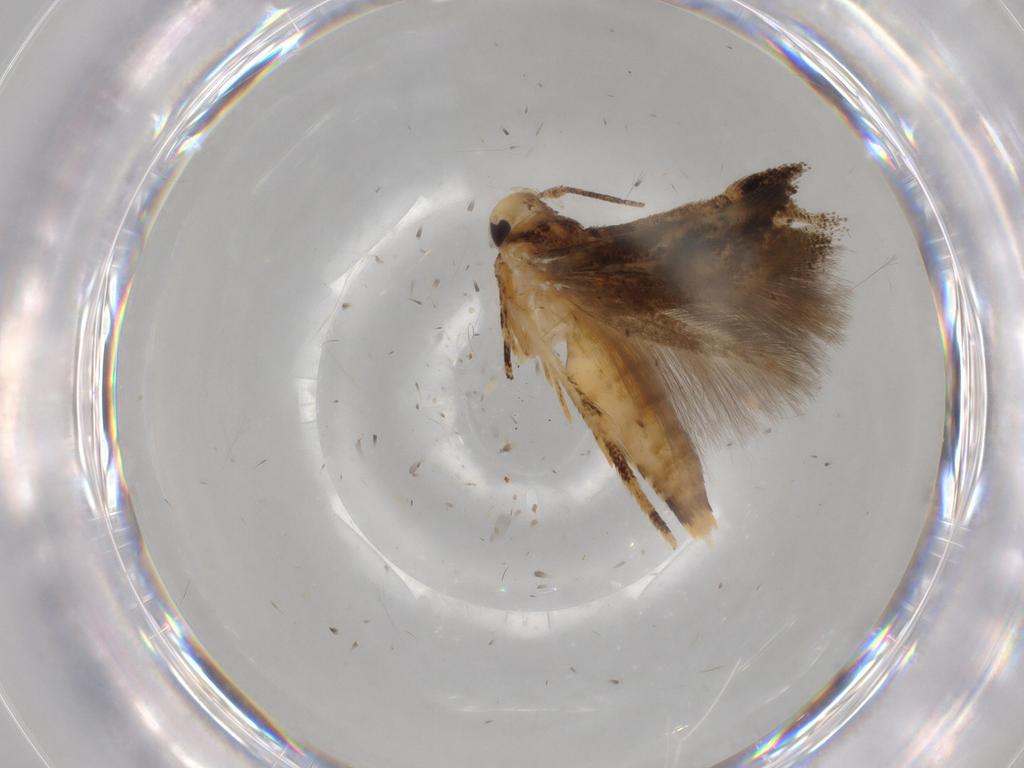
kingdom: Animalia
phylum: Arthropoda
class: Insecta
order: Lepidoptera
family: Momphidae
